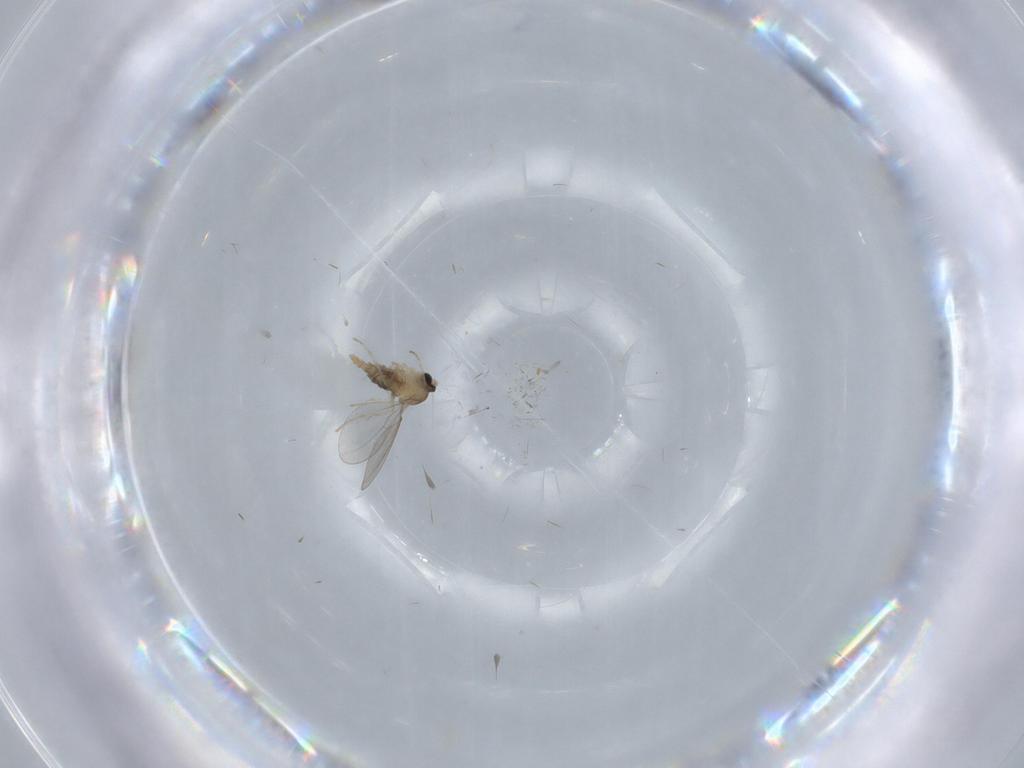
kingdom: Animalia
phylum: Arthropoda
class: Insecta
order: Diptera
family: Cecidomyiidae
